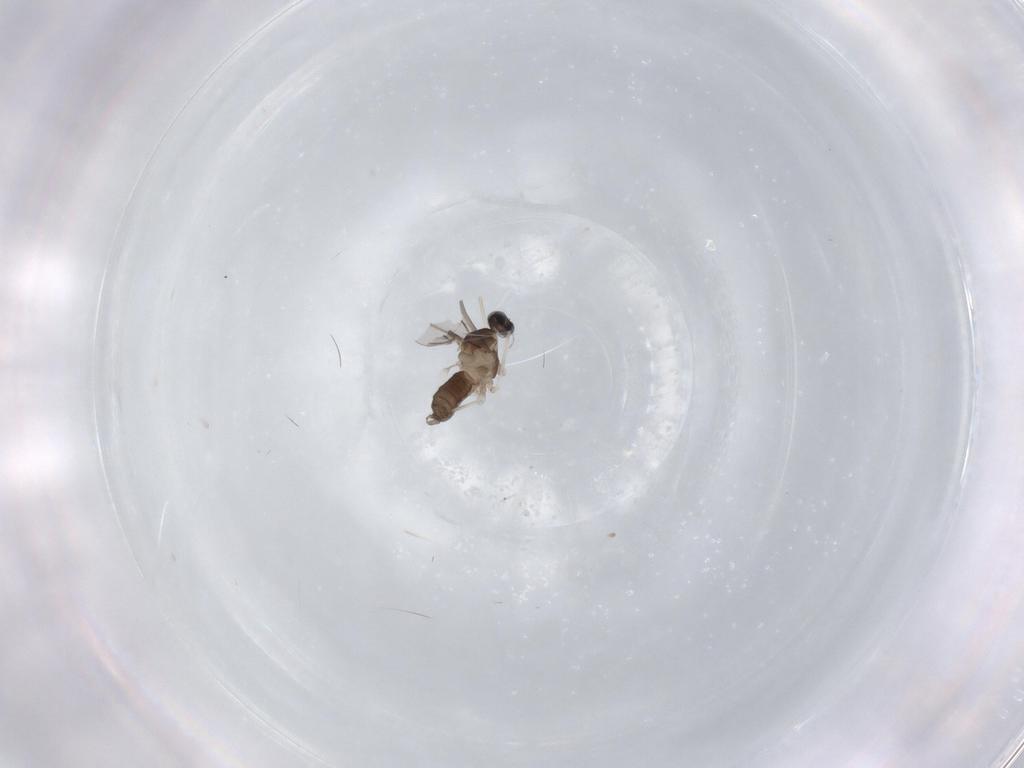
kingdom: Animalia
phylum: Arthropoda
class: Insecta
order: Diptera
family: Cecidomyiidae
